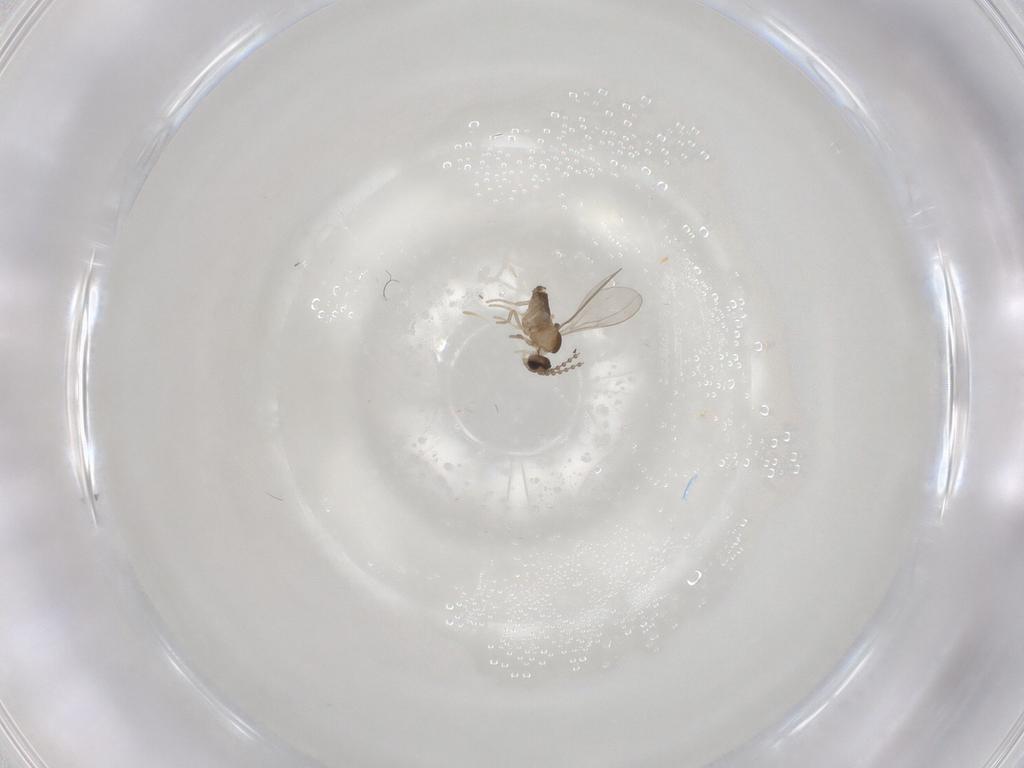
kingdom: Animalia
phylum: Arthropoda
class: Insecta
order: Diptera
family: Cecidomyiidae
